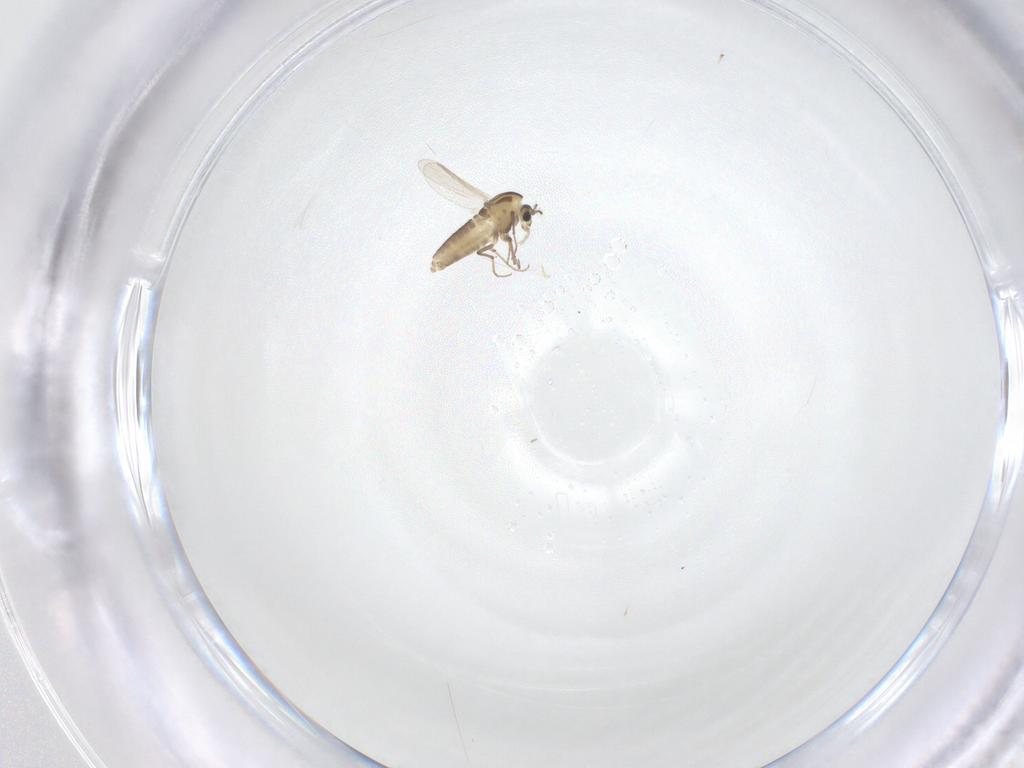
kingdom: Animalia
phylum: Arthropoda
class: Insecta
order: Diptera
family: Chironomidae
